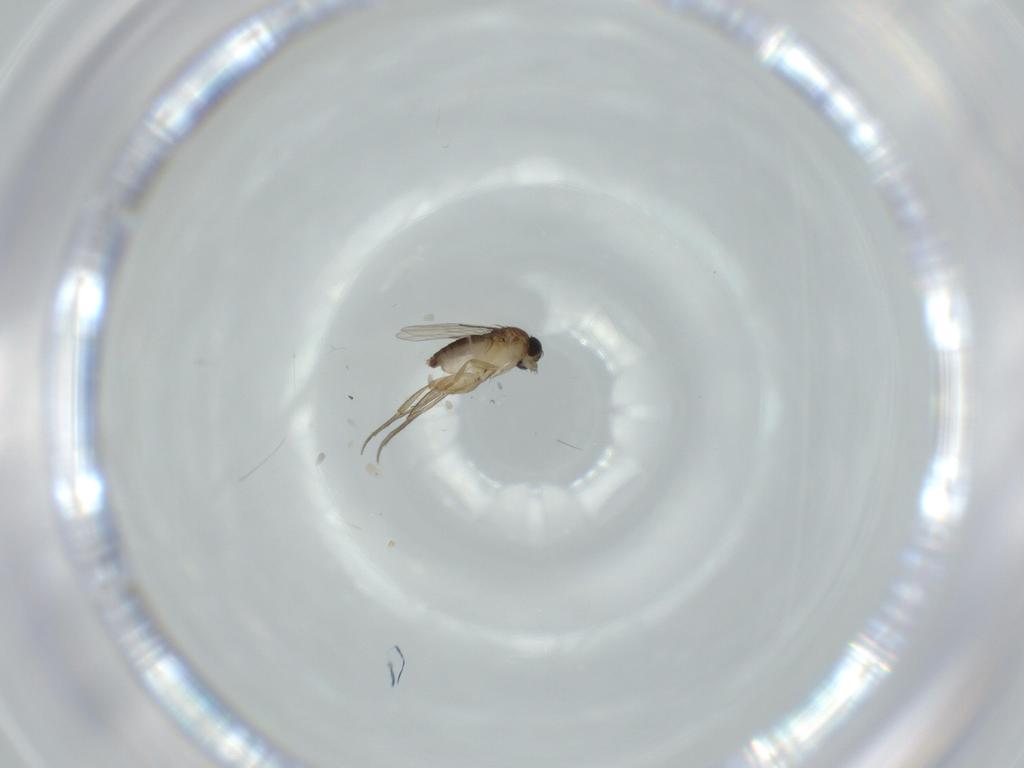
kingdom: Animalia
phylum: Arthropoda
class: Insecta
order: Diptera
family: Phoridae
